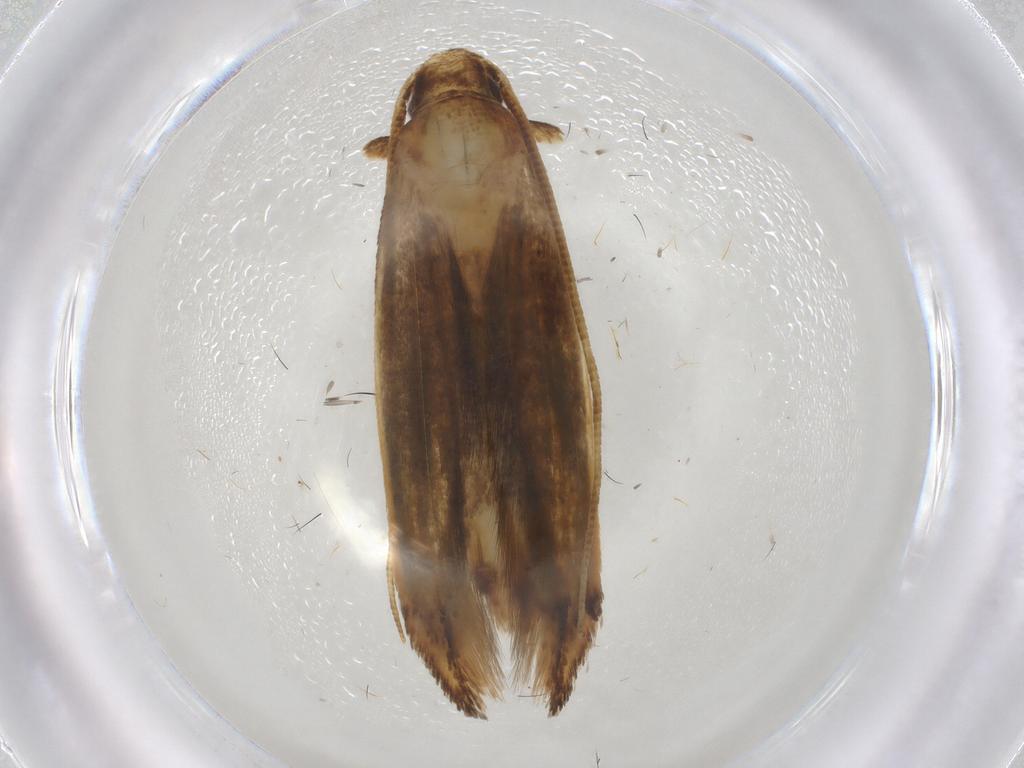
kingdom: Animalia
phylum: Arthropoda
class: Insecta
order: Lepidoptera
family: Tineidae
